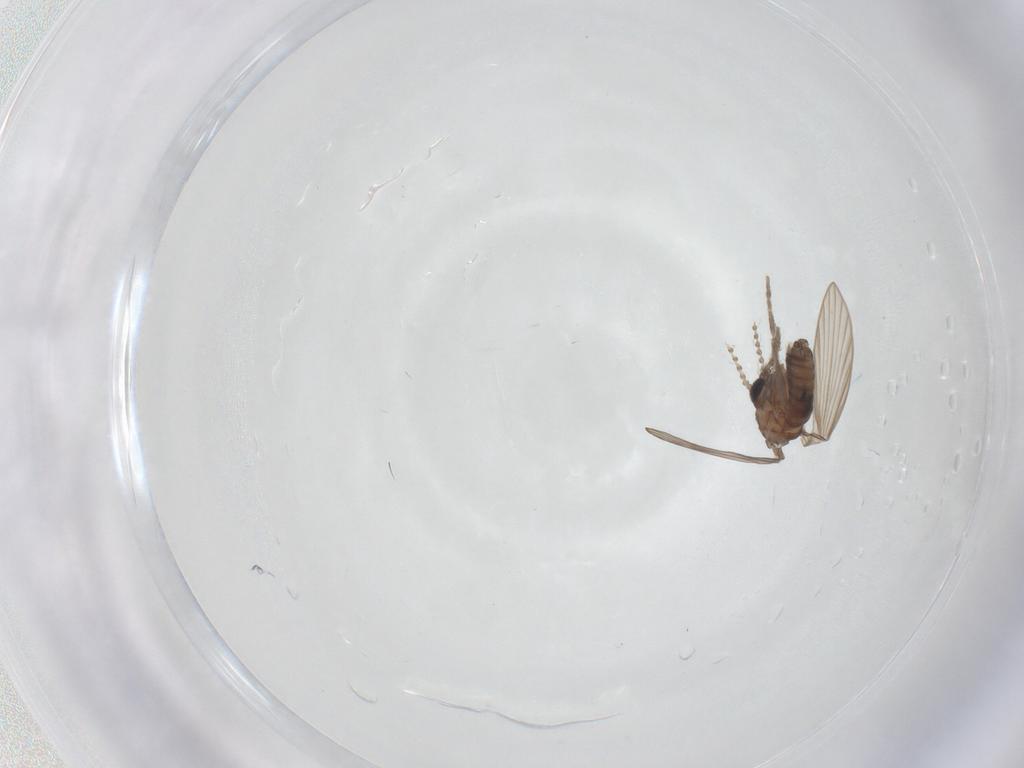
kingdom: Animalia
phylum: Arthropoda
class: Insecta
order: Diptera
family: Psychodidae
